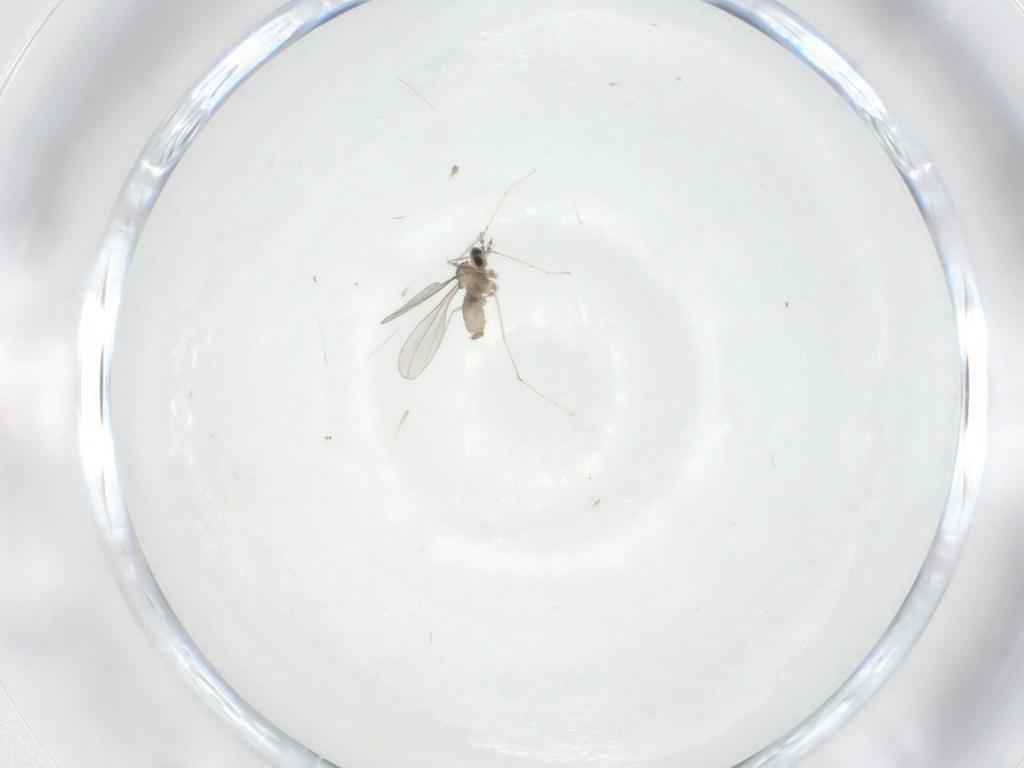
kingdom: Animalia
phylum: Arthropoda
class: Insecta
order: Diptera
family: Cecidomyiidae
